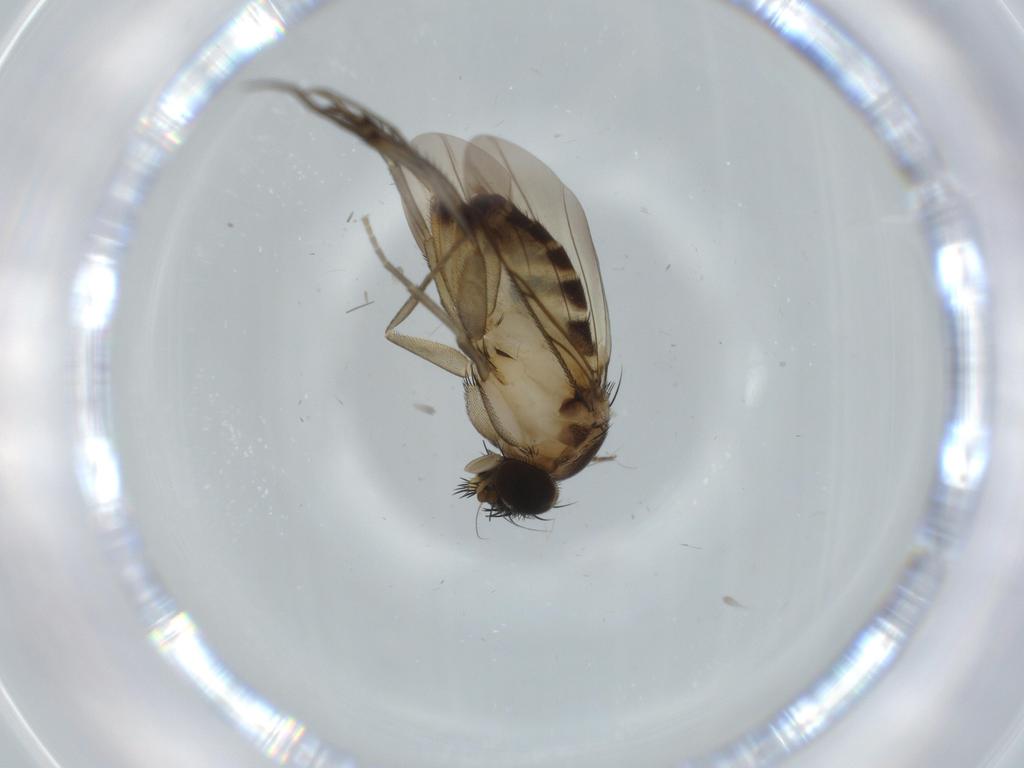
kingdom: Animalia
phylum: Arthropoda
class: Insecta
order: Diptera
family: Phoridae
